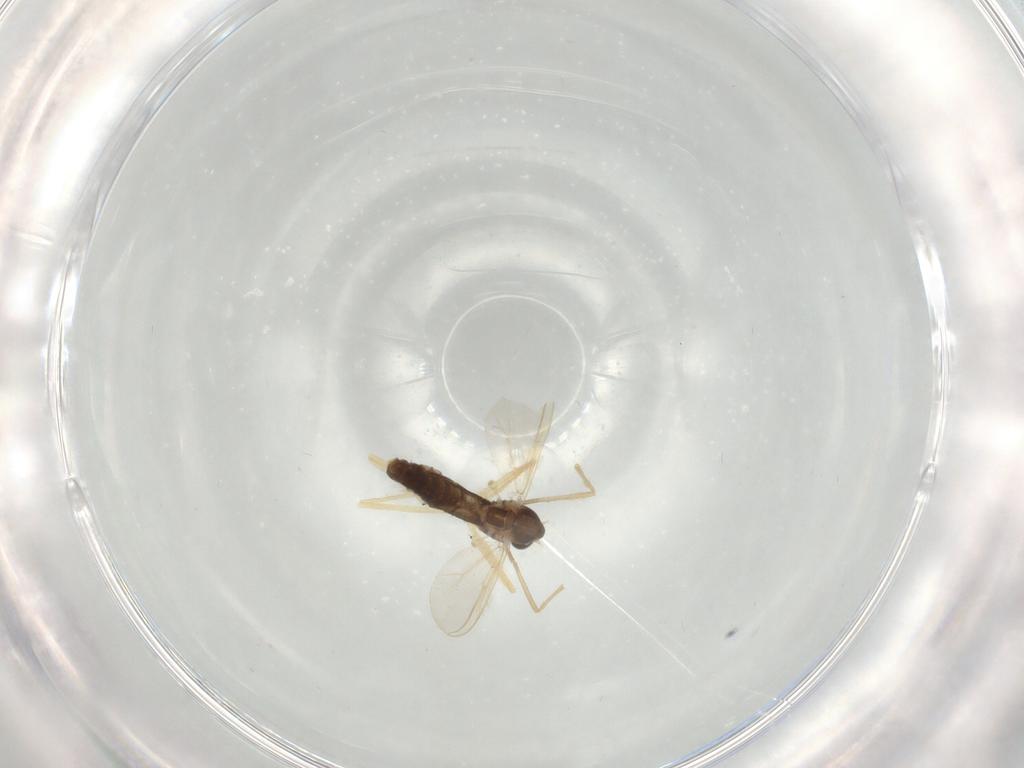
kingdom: Animalia
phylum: Arthropoda
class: Insecta
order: Diptera
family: Chironomidae
